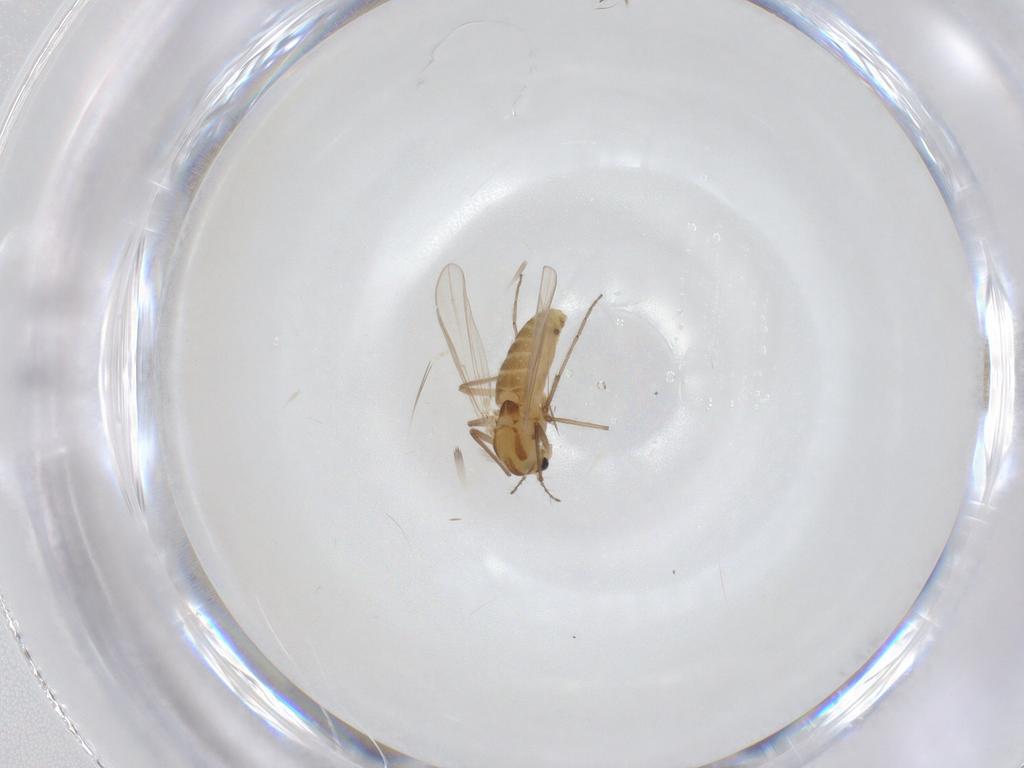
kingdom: Animalia
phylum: Arthropoda
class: Insecta
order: Diptera
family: Chironomidae
